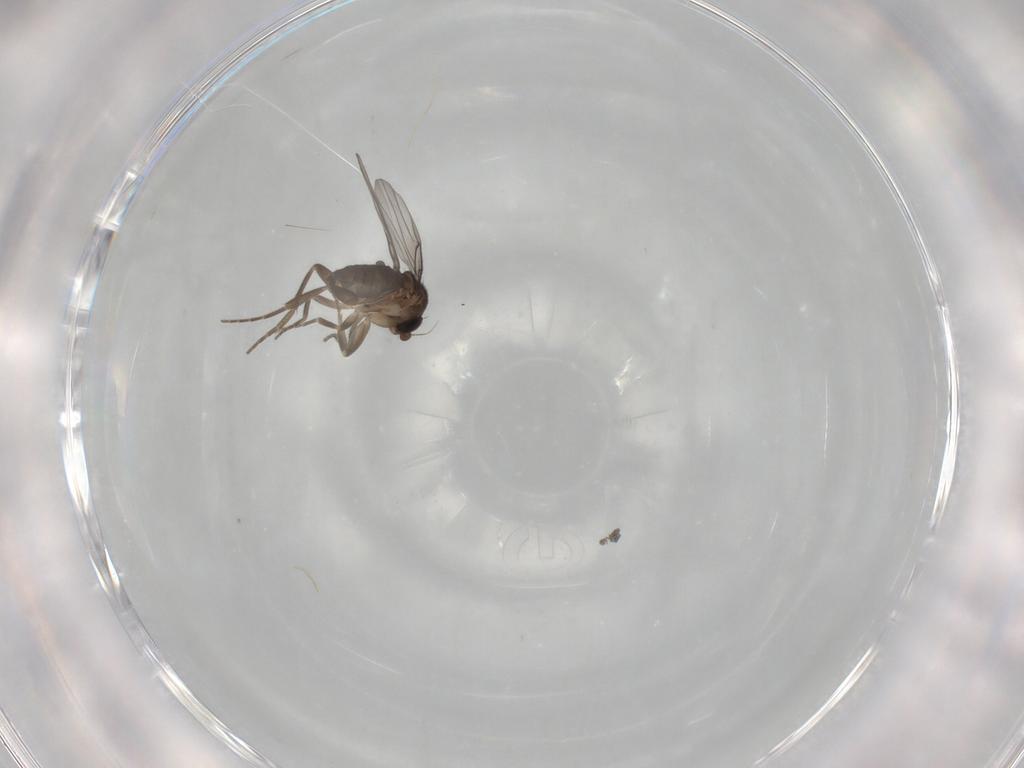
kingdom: Animalia
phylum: Arthropoda
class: Insecta
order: Diptera
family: Phoridae
